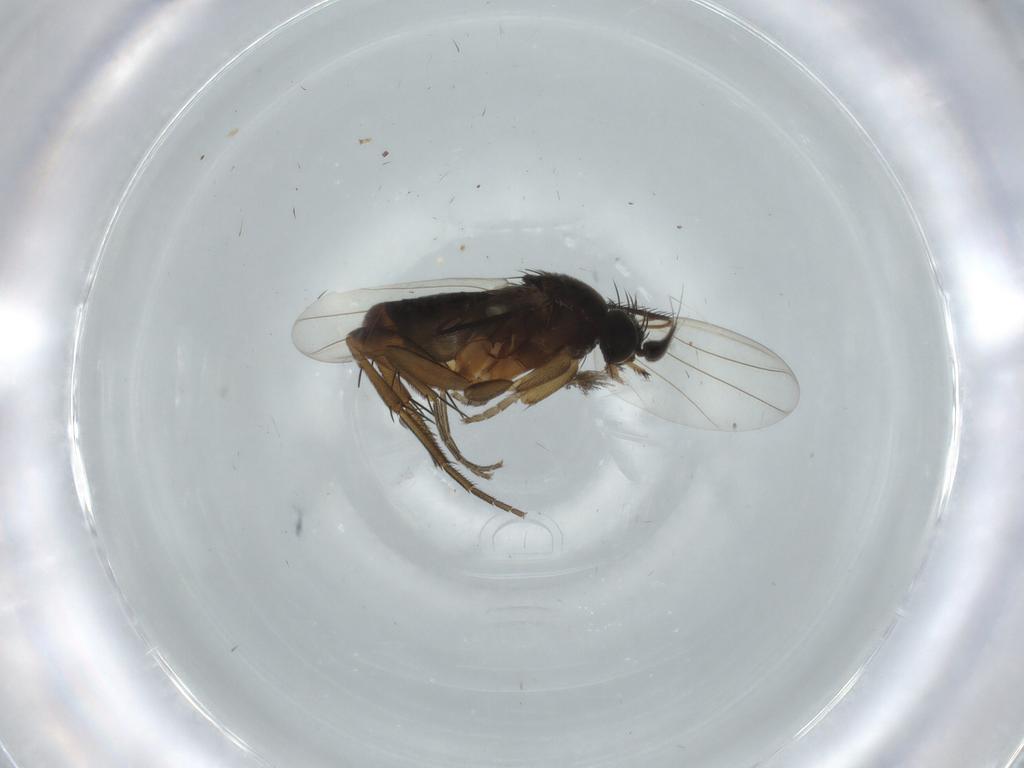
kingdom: Animalia
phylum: Arthropoda
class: Insecta
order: Diptera
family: Phoridae
